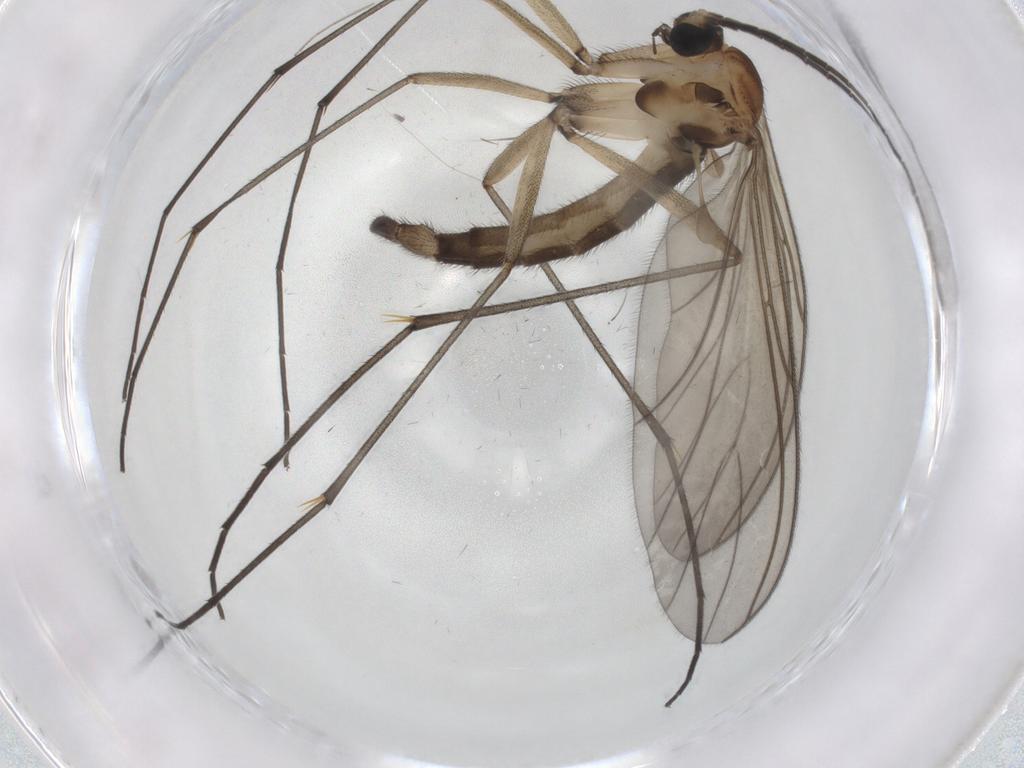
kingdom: Animalia
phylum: Arthropoda
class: Insecta
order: Diptera
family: Sciaridae
